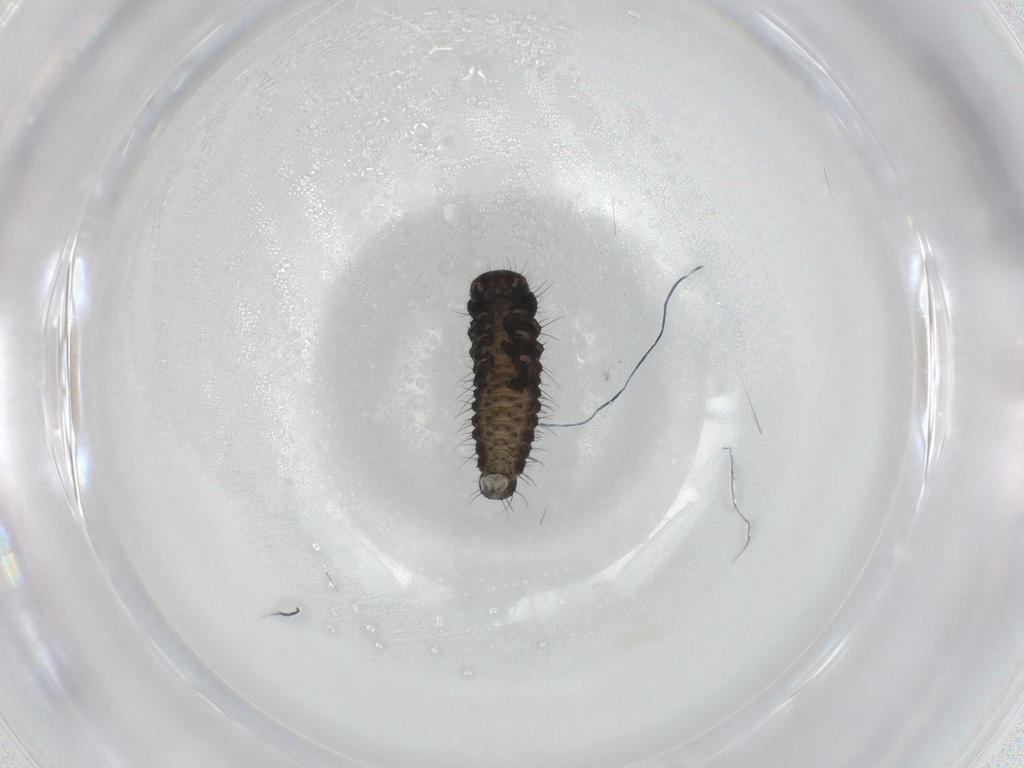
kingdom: Animalia
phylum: Arthropoda
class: Insecta
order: Coleoptera
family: Chrysomelidae
